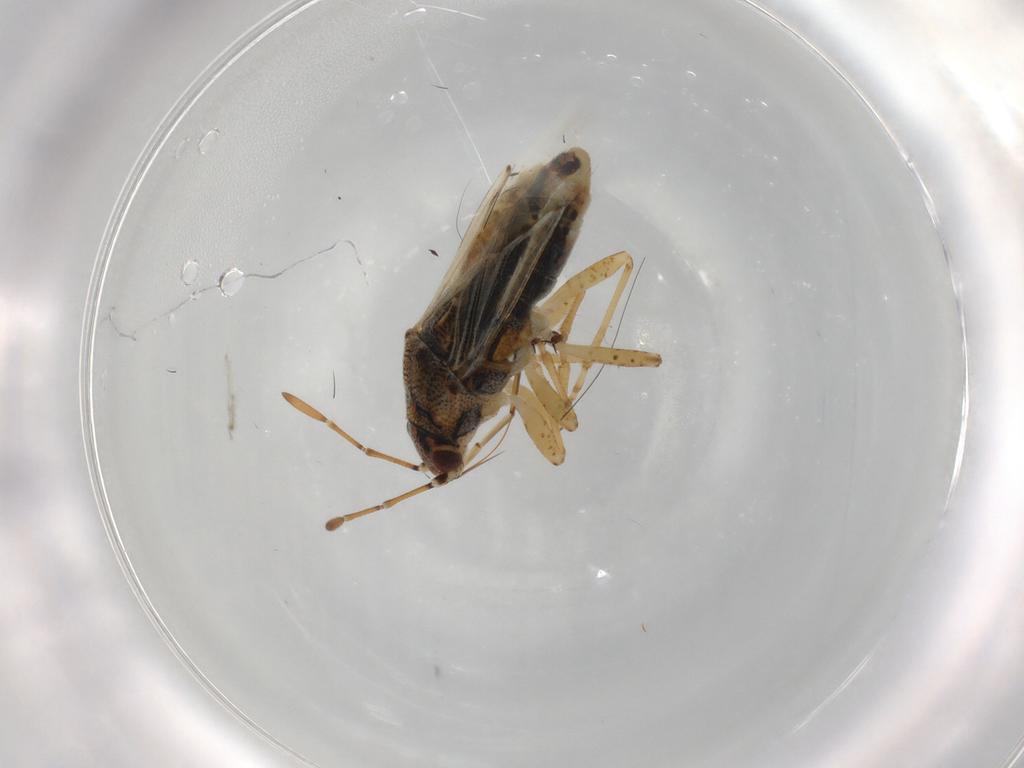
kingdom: Animalia
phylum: Arthropoda
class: Insecta
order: Hemiptera
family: Lygaeidae
